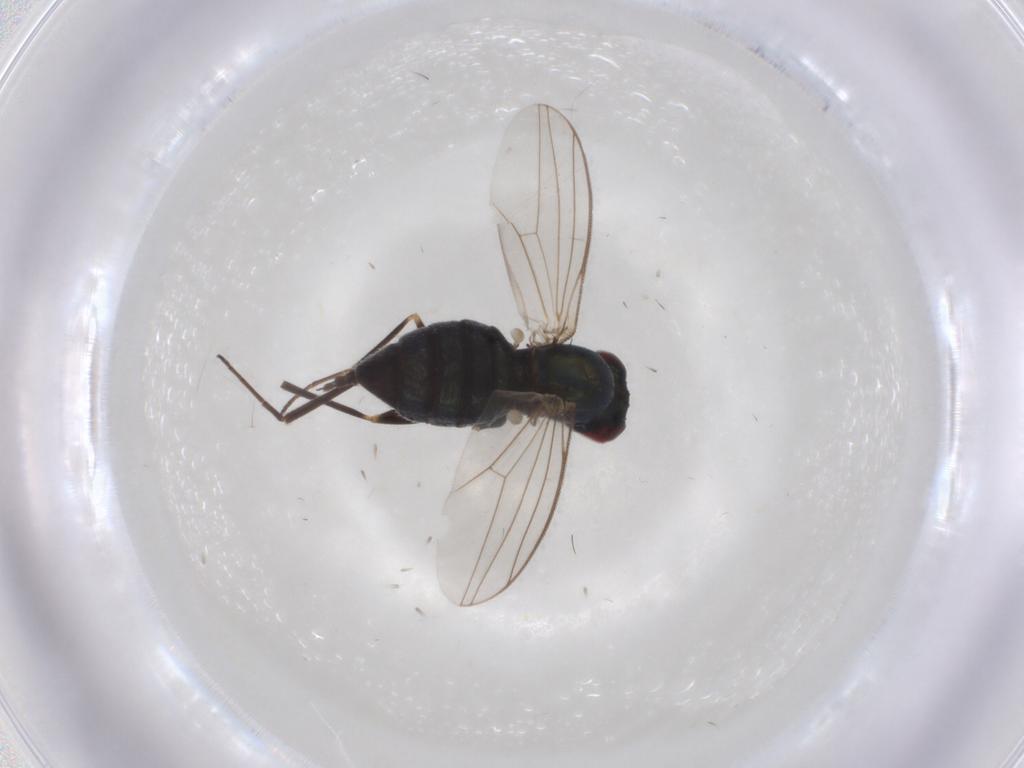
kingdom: Animalia
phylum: Arthropoda
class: Insecta
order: Diptera
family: Dolichopodidae
